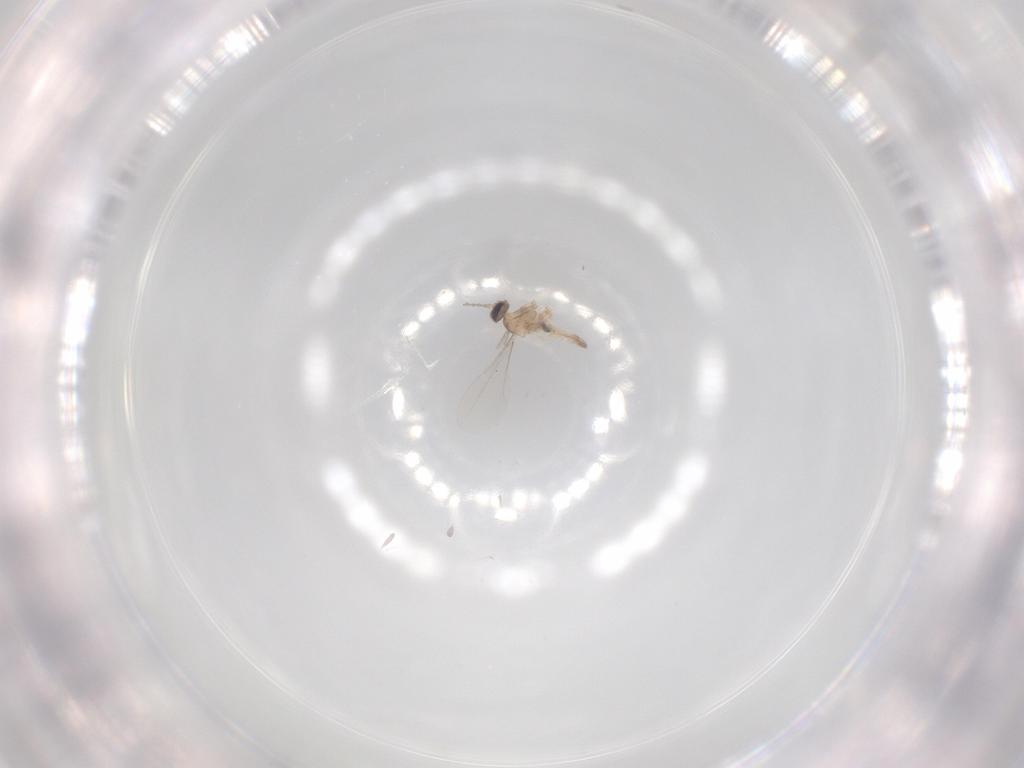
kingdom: Animalia
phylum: Arthropoda
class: Insecta
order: Diptera
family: Cecidomyiidae
